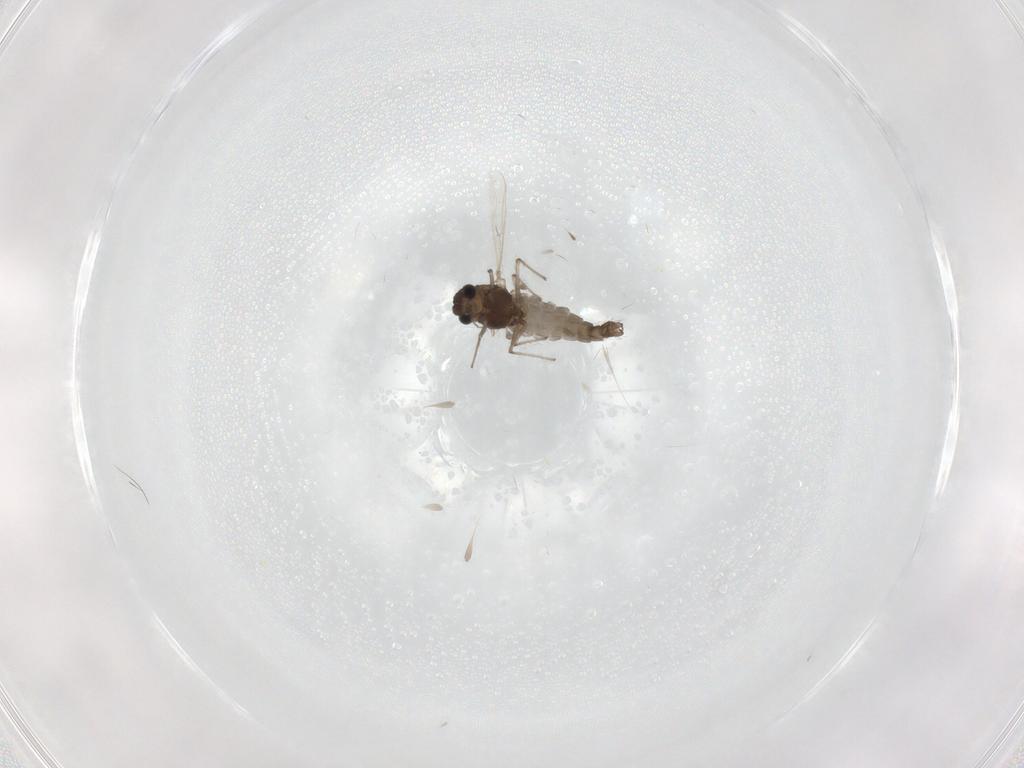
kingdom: Animalia
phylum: Arthropoda
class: Insecta
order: Diptera
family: Chironomidae
